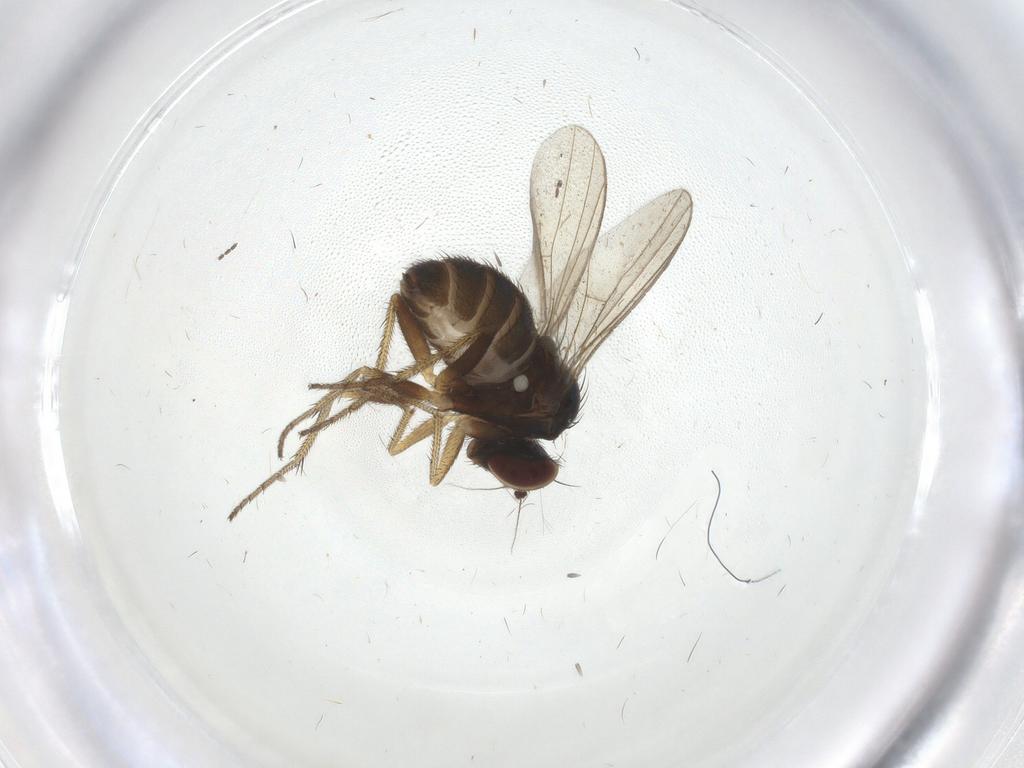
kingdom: Animalia
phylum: Arthropoda
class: Insecta
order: Diptera
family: Dolichopodidae
